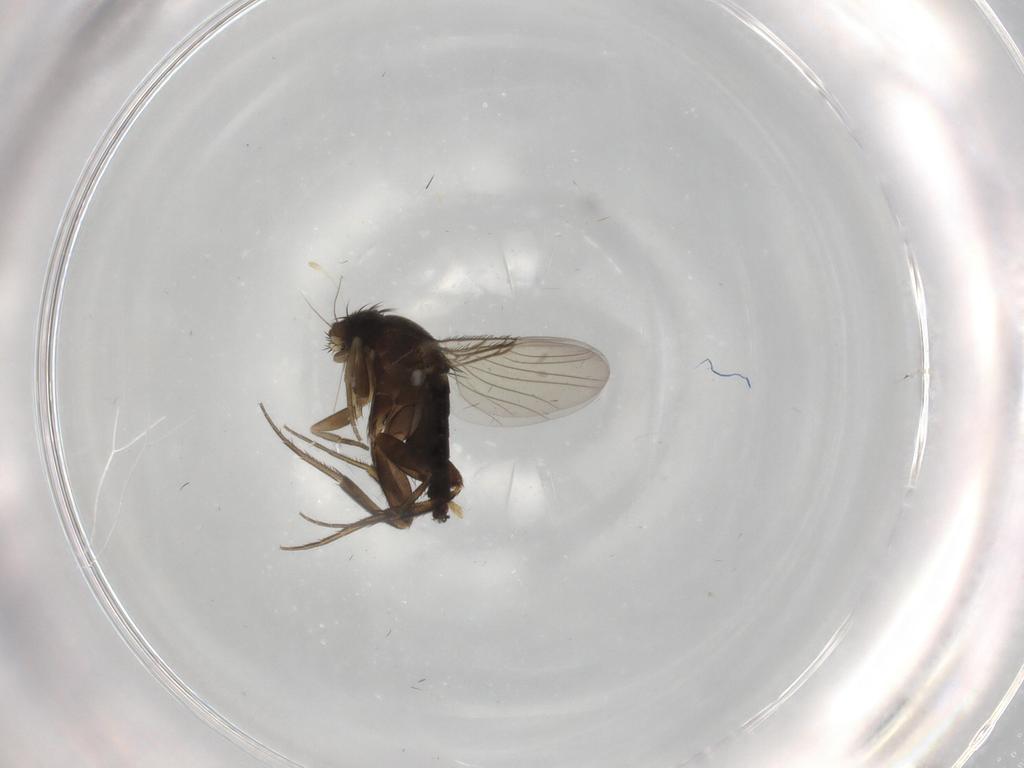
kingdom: Animalia
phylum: Arthropoda
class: Insecta
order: Diptera
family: Phoridae
